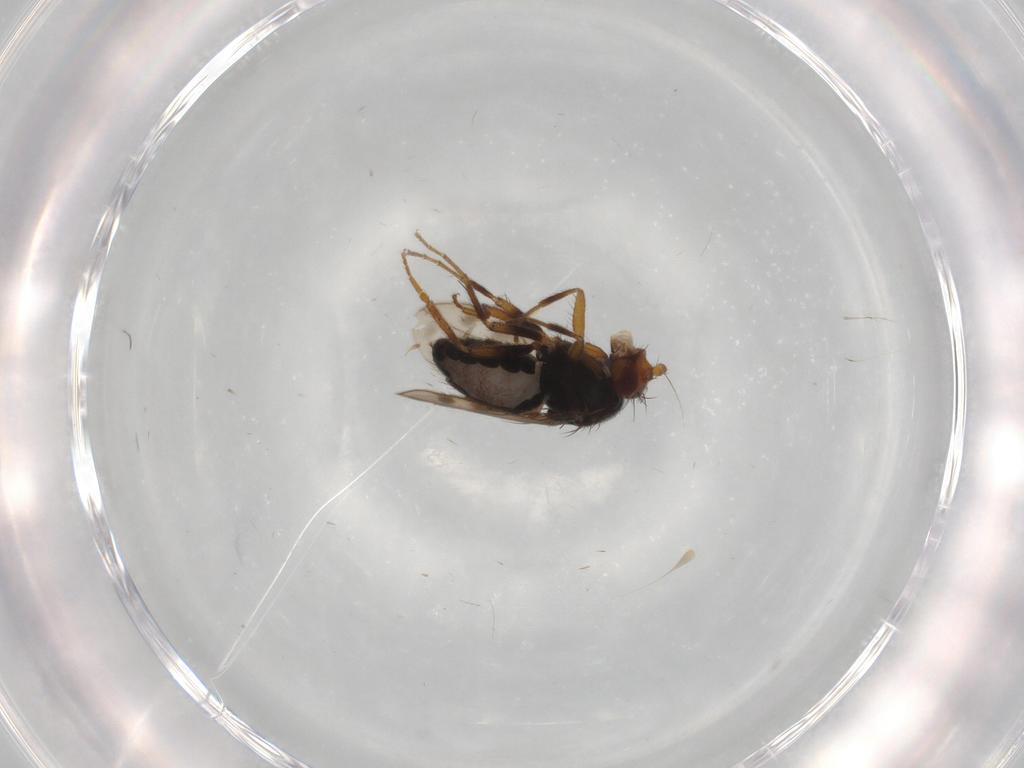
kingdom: Animalia
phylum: Arthropoda
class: Insecta
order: Diptera
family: Sphaeroceridae
